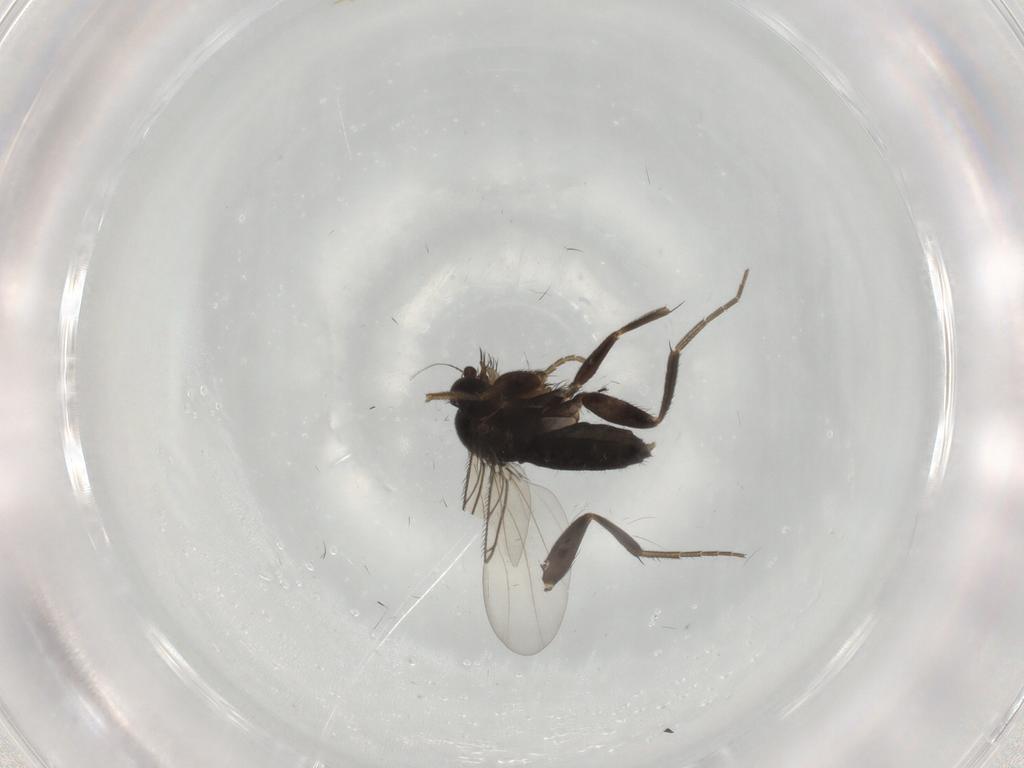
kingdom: Animalia
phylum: Arthropoda
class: Insecta
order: Diptera
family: Phoridae
